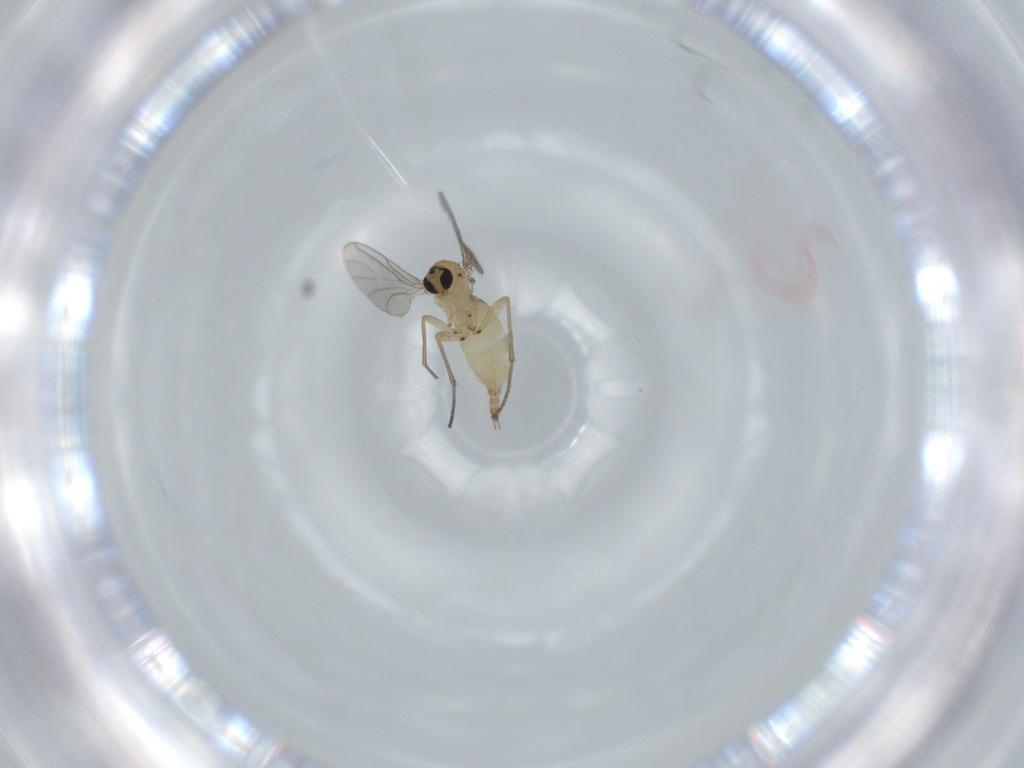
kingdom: Animalia
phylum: Arthropoda
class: Insecta
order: Diptera
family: Sciaridae
